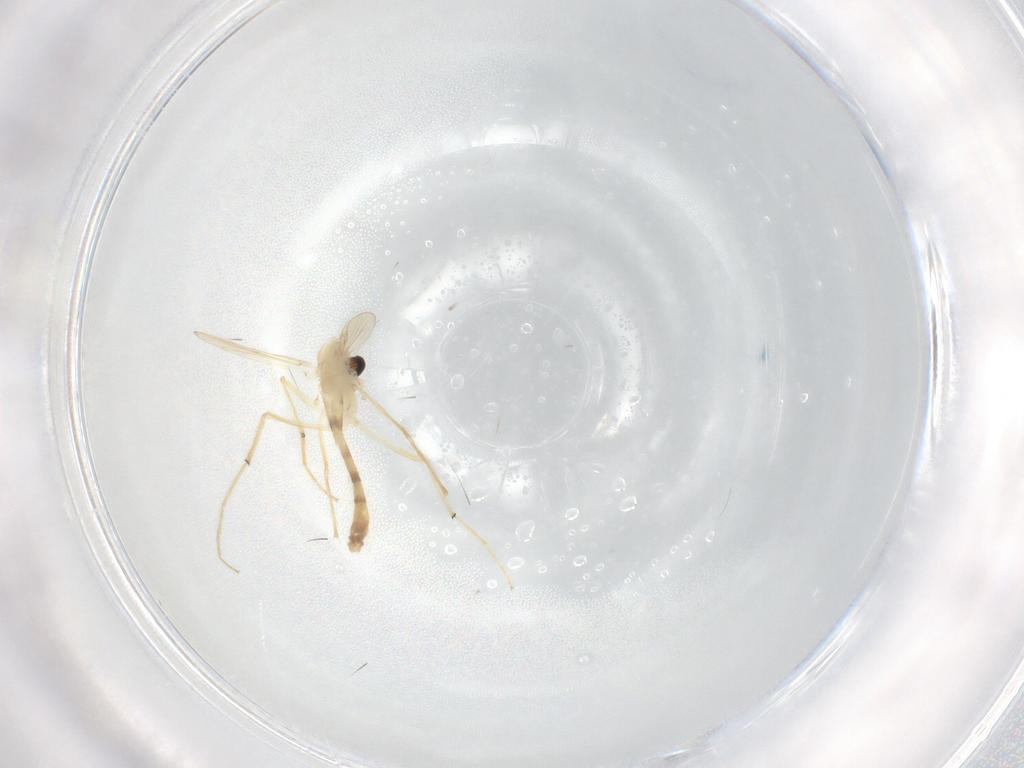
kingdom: Animalia
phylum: Arthropoda
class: Insecta
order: Diptera
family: Chironomidae
